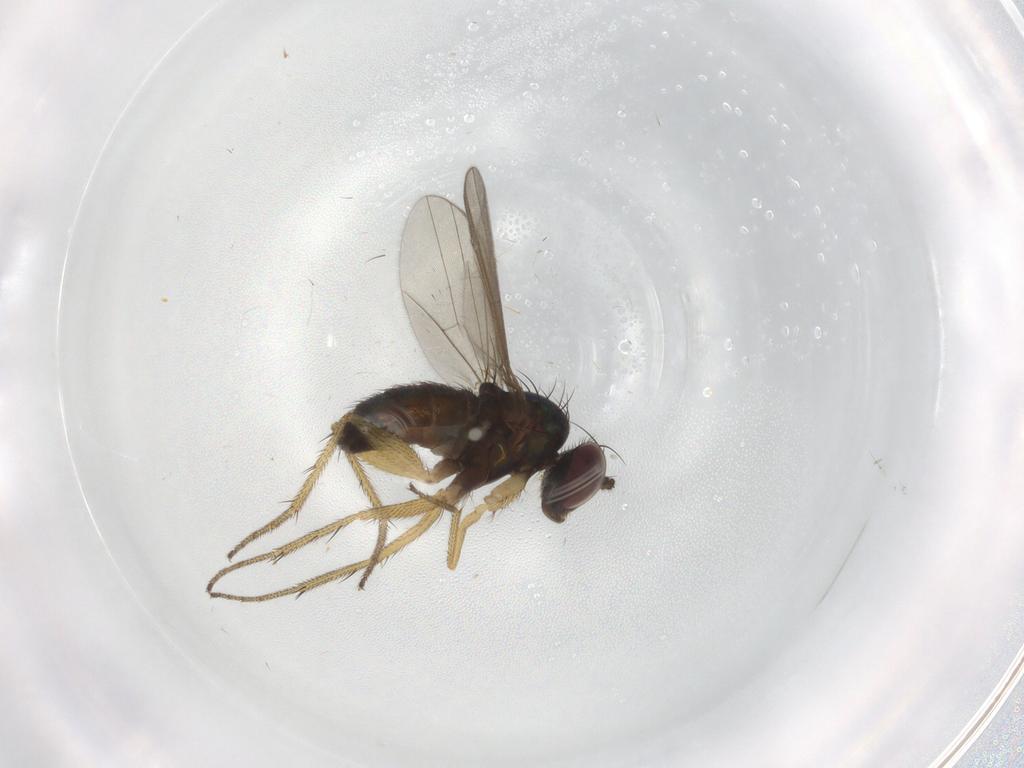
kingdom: Animalia
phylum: Arthropoda
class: Insecta
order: Diptera
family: Dolichopodidae
